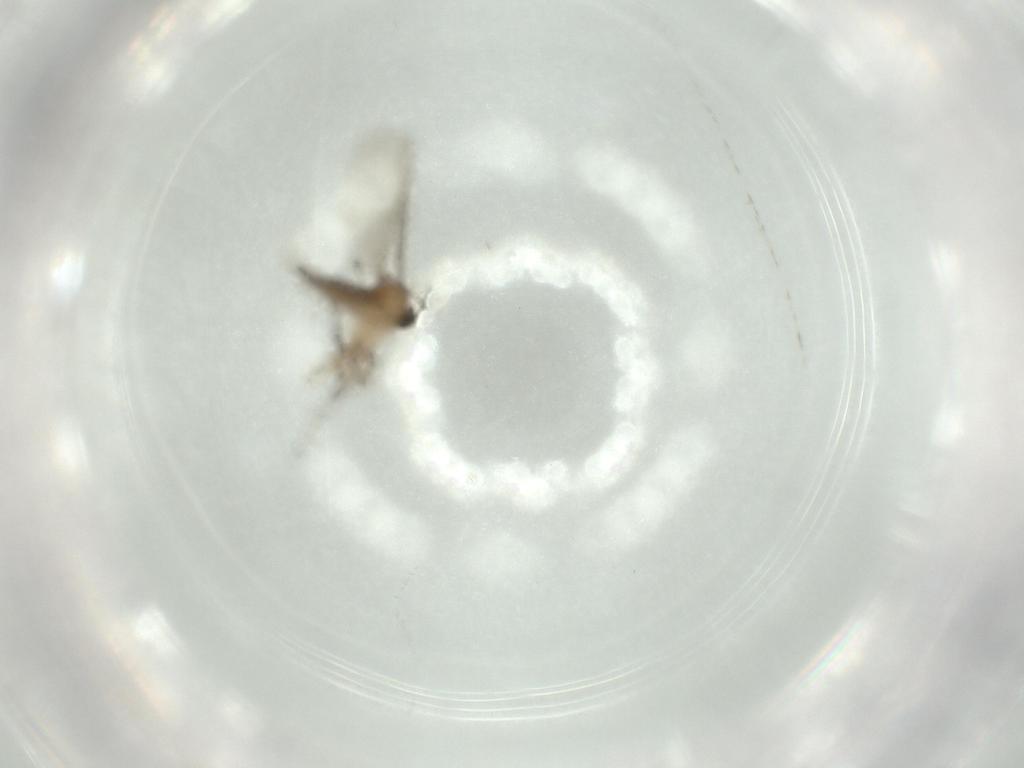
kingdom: Animalia
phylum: Arthropoda
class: Insecta
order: Diptera
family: Sciaridae
